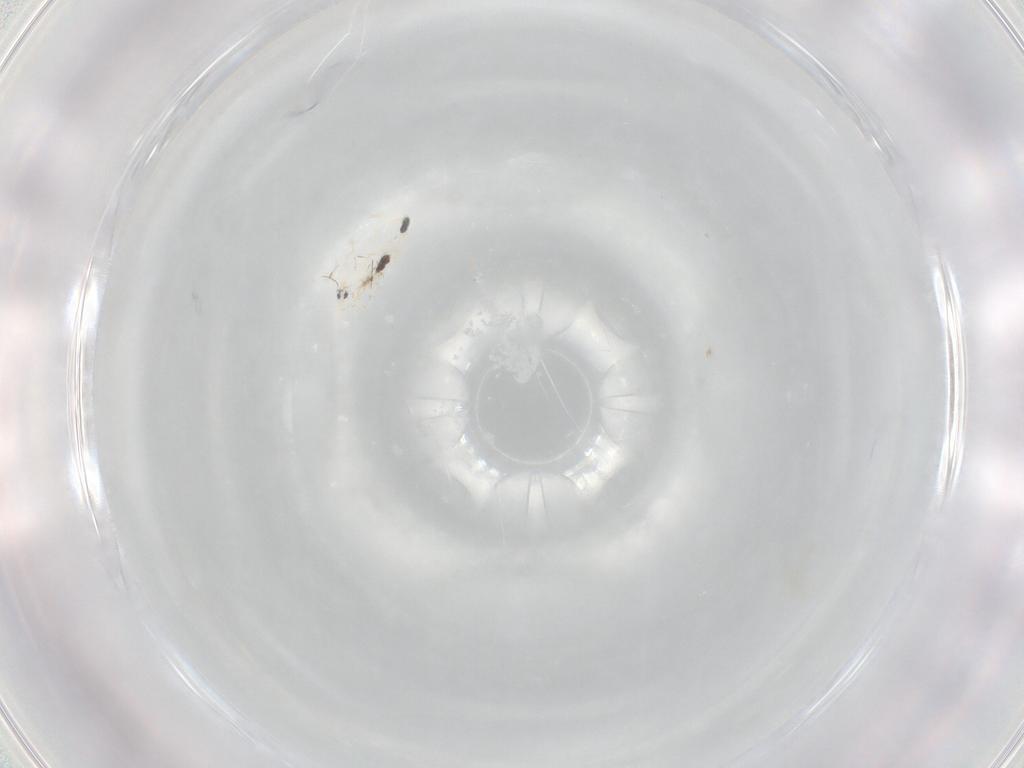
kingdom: Animalia
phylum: Arthropoda
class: Collembola
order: Entomobryomorpha
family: Entomobryidae
